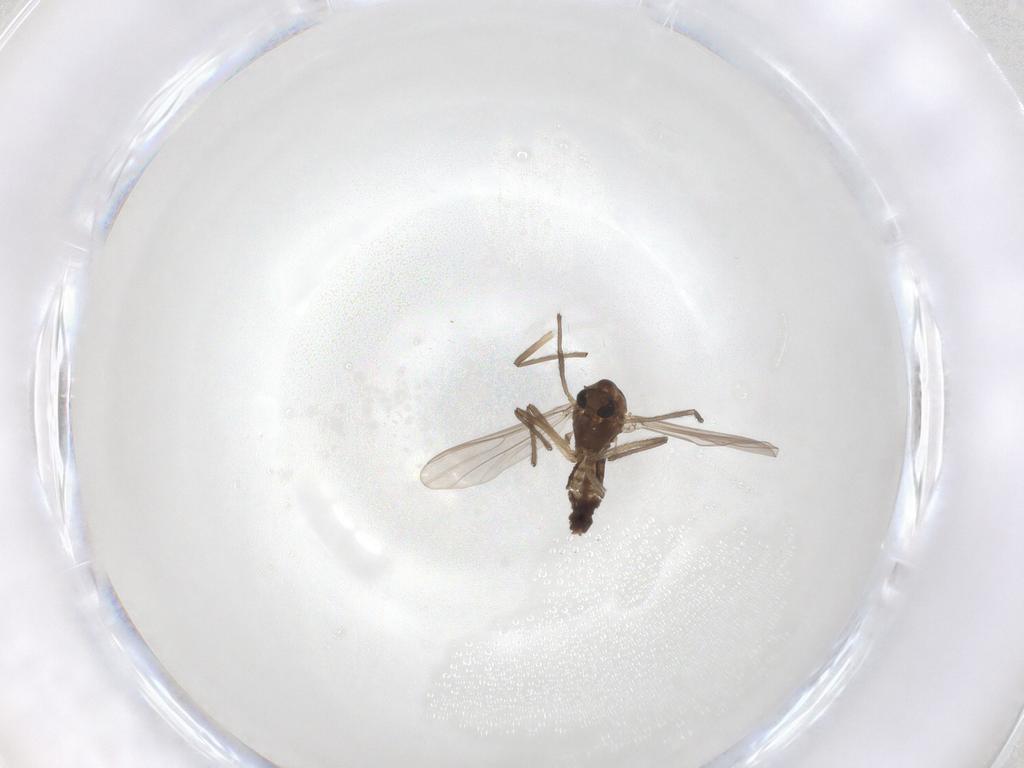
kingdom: Animalia
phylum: Arthropoda
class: Insecta
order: Diptera
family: Chironomidae
